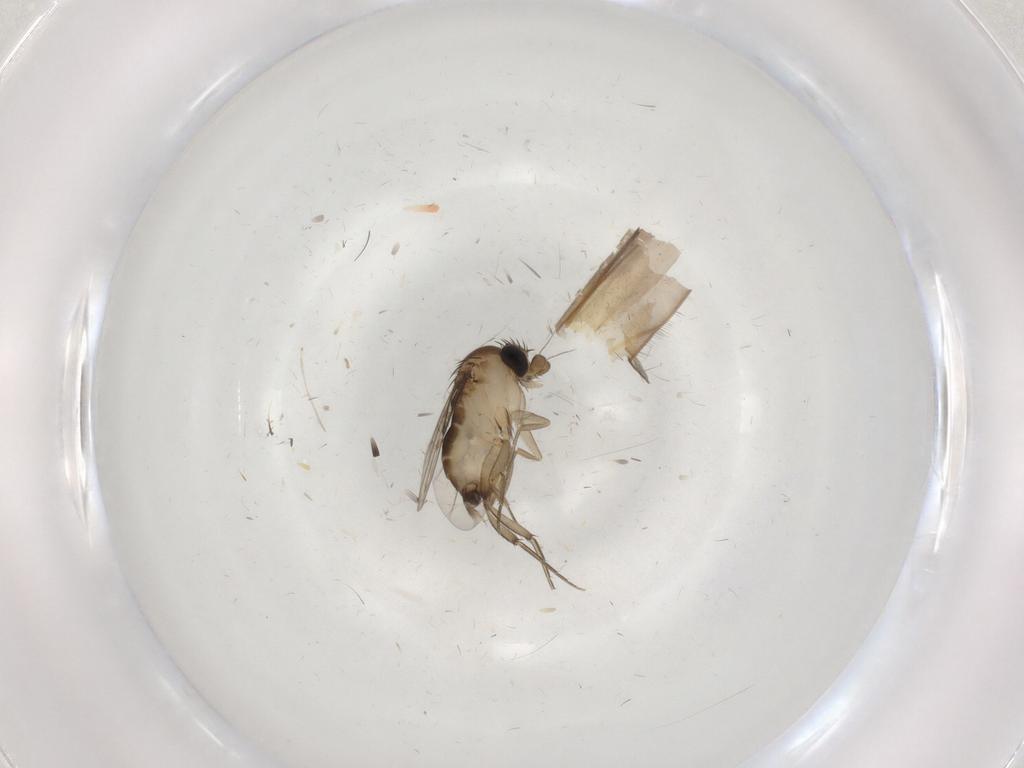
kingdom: Animalia
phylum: Arthropoda
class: Insecta
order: Diptera
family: Phoridae
